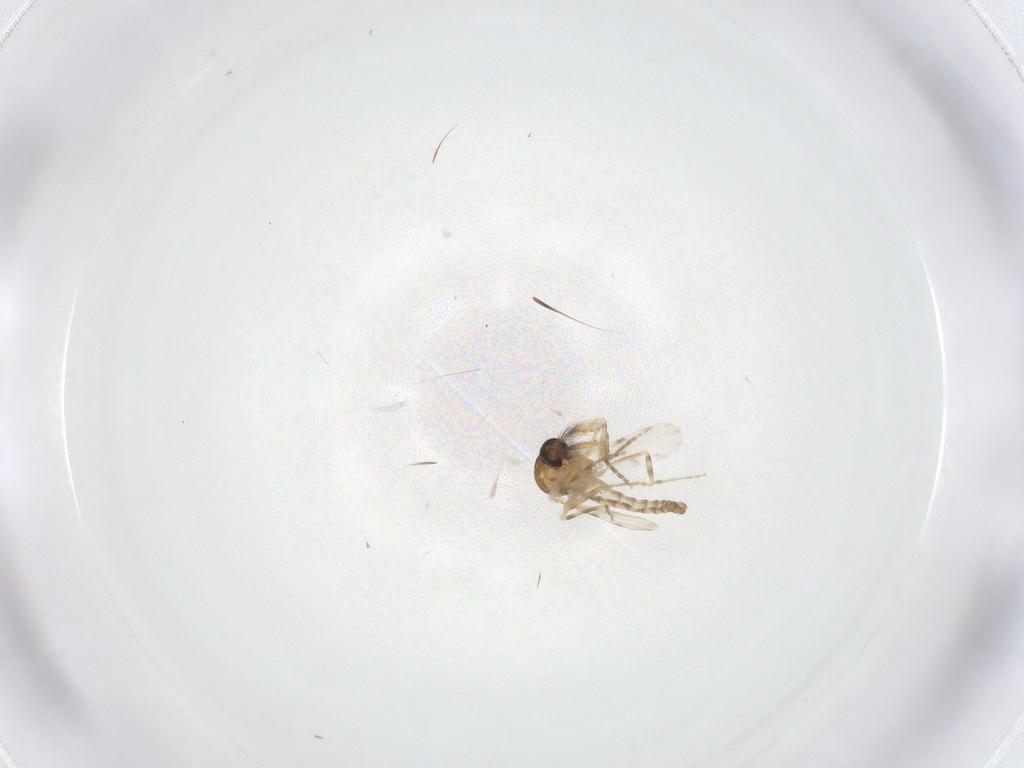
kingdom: Animalia
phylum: Arthropoda
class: Insecta
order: Diptera
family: Ceratopogonidae
